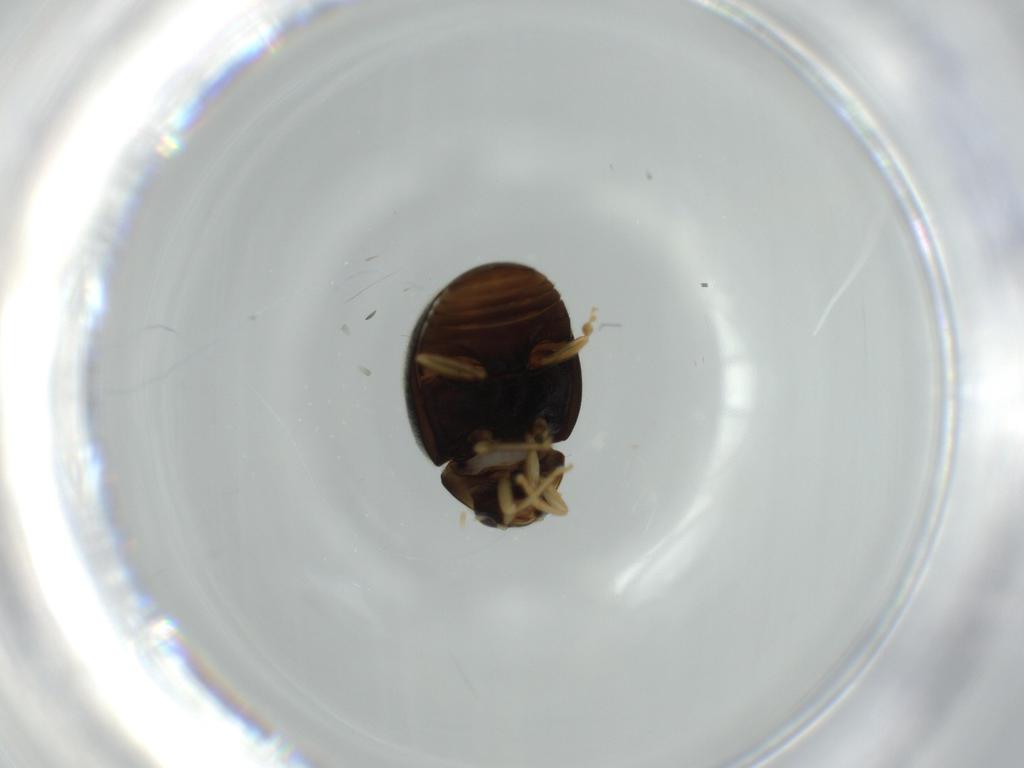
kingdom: Animalia
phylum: Arthropoda
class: Insecta
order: Coleoptera
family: Coccinellidae
